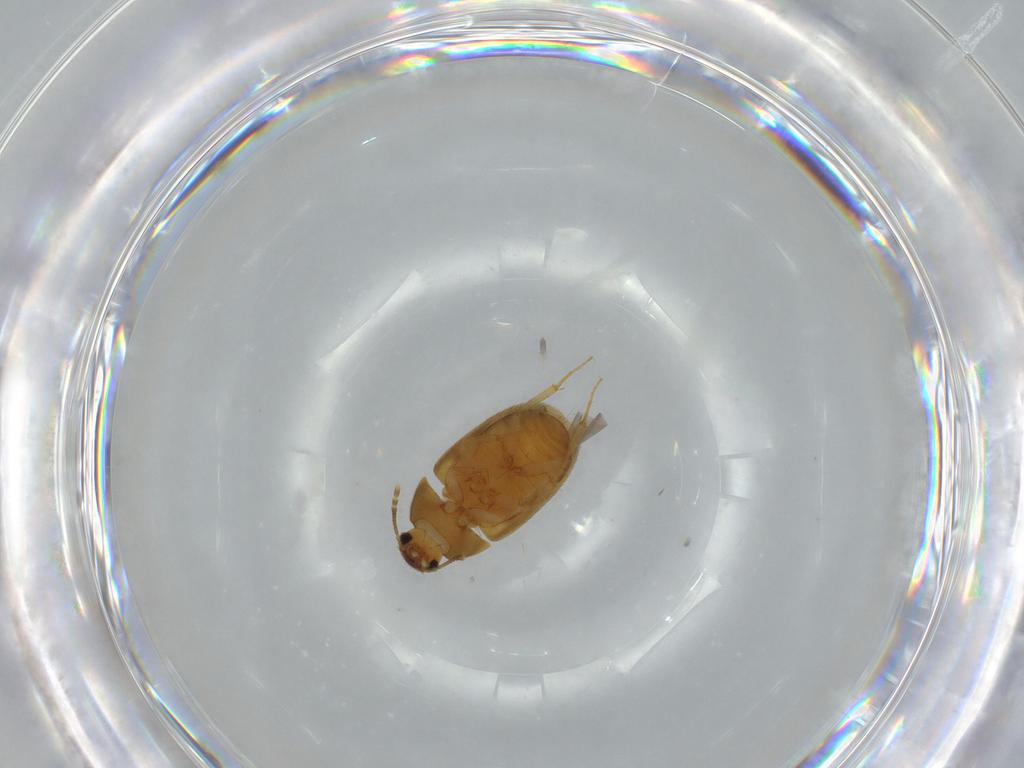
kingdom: Animalia
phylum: Arthropoda
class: Insecta
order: Coleoptera
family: Mycetophagidae
